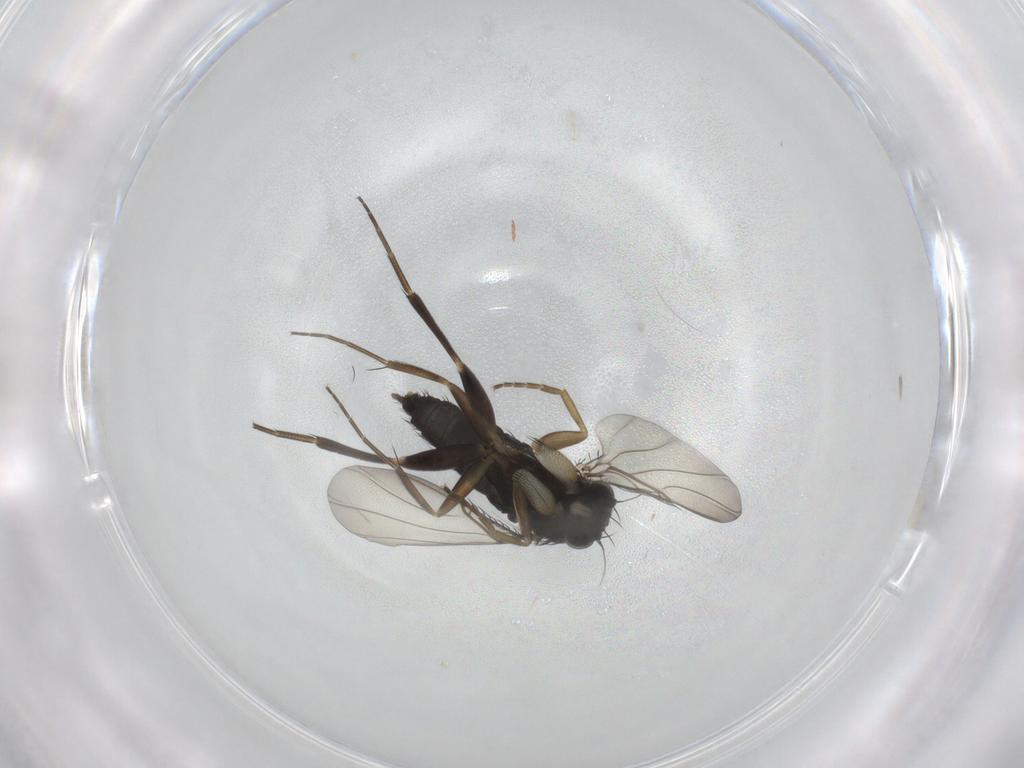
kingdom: Animalia
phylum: Arthropoda
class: Insecta
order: Diptera
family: Phoridae
